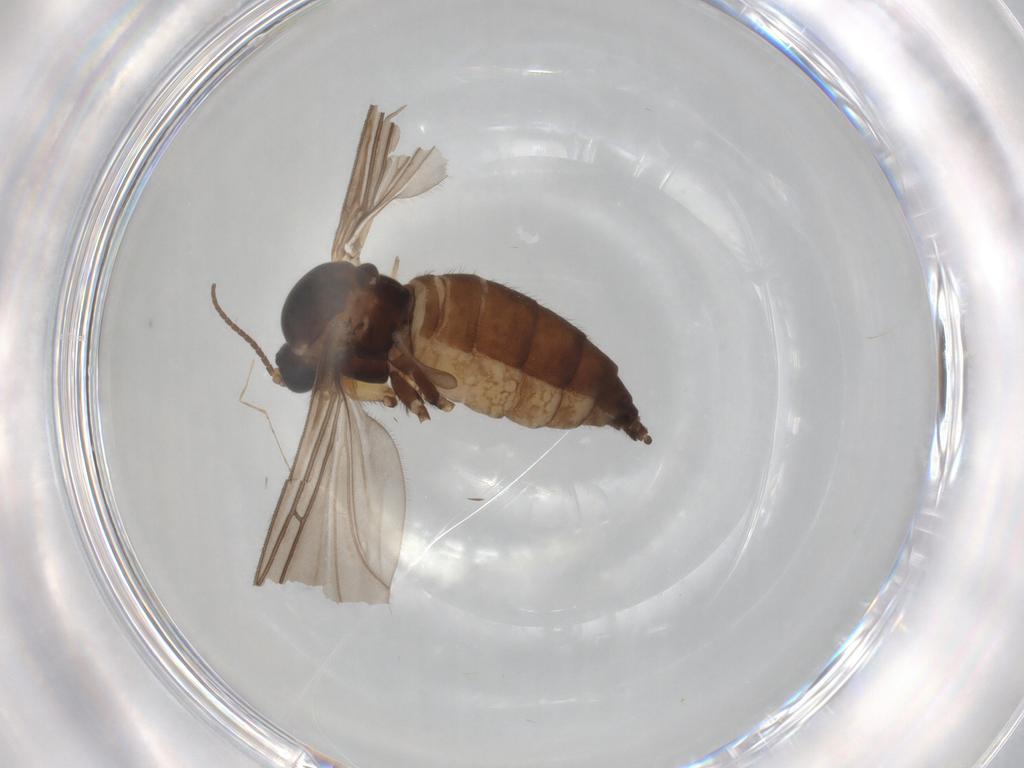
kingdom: Animalia
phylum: Arthropoda
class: Insecta
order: Diptera
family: Sciaridae
